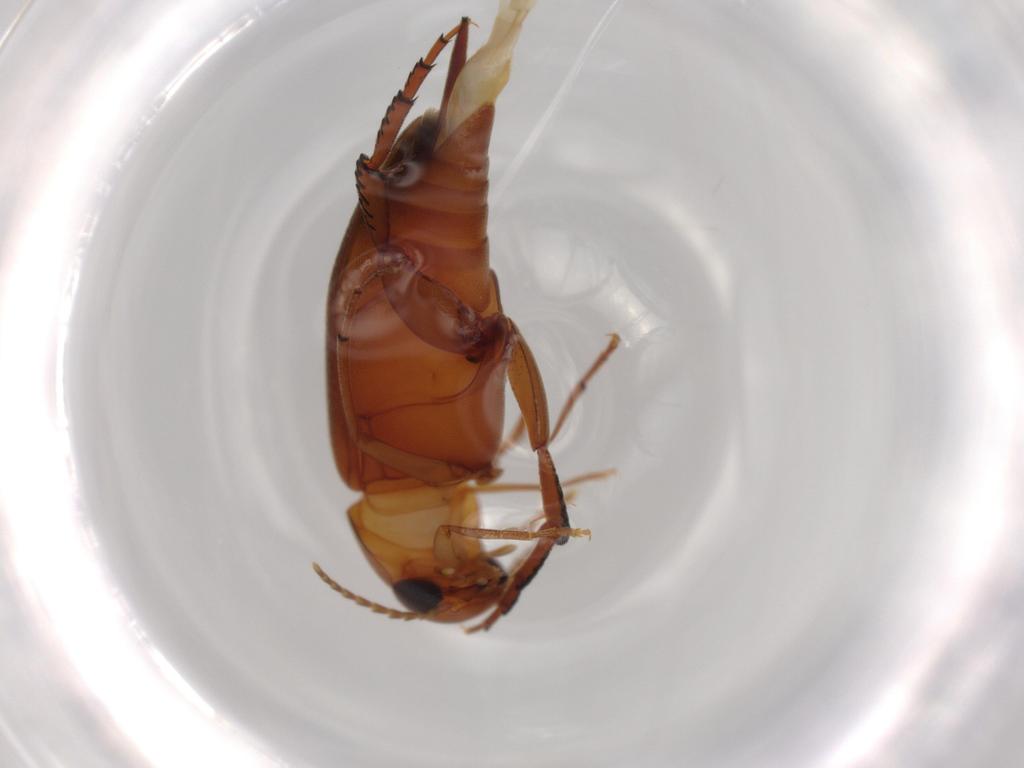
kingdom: Animalia
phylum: Arthropoda
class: Insecta
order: Coleoptera
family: Mordellidae
